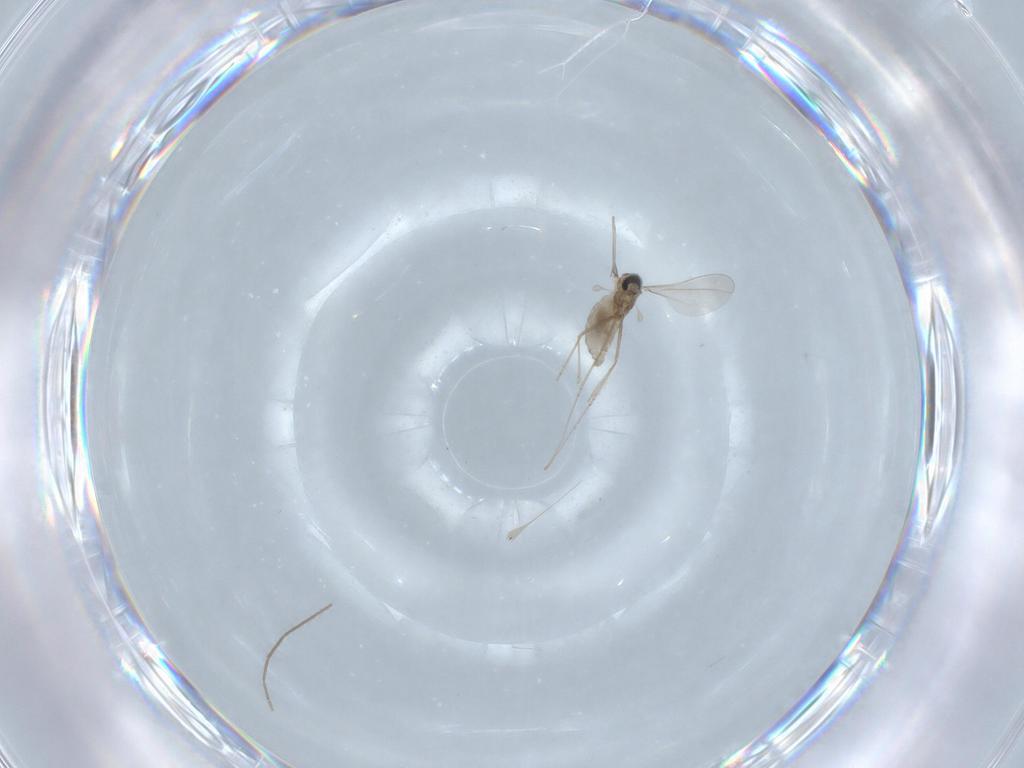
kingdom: Animalia
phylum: Arthropoda
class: Insecta
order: Diptera
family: Cecidomyiidae
